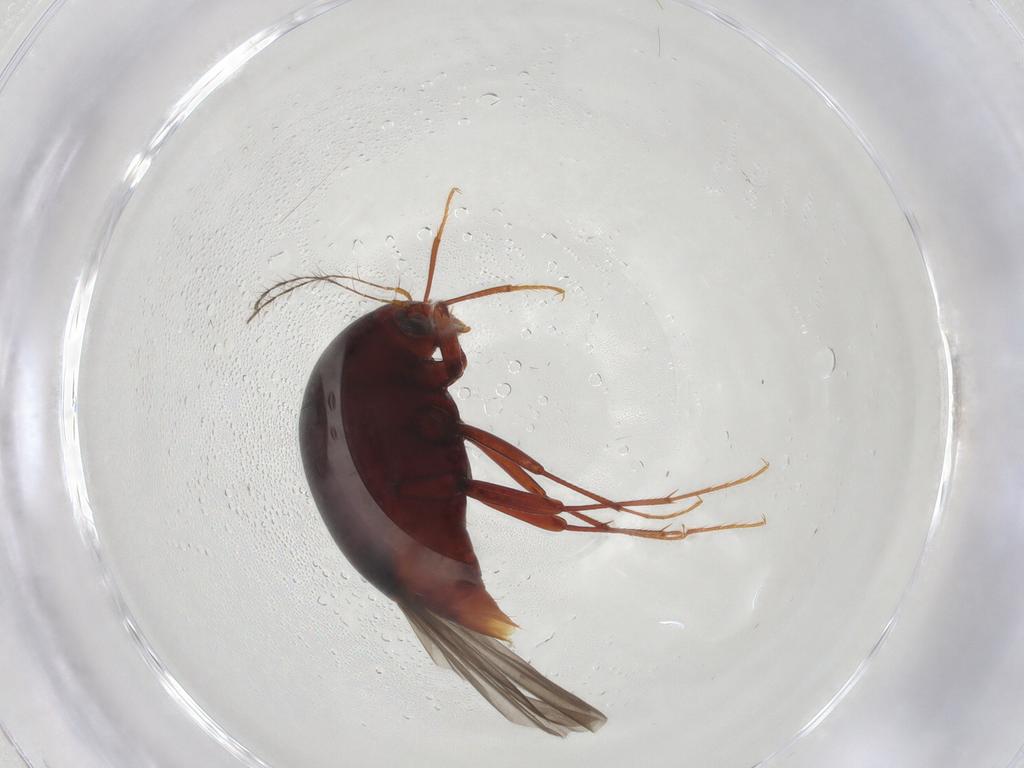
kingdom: Animalia
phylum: Arthropoda
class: Insecta
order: Coleoptera
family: Staphylinidae
